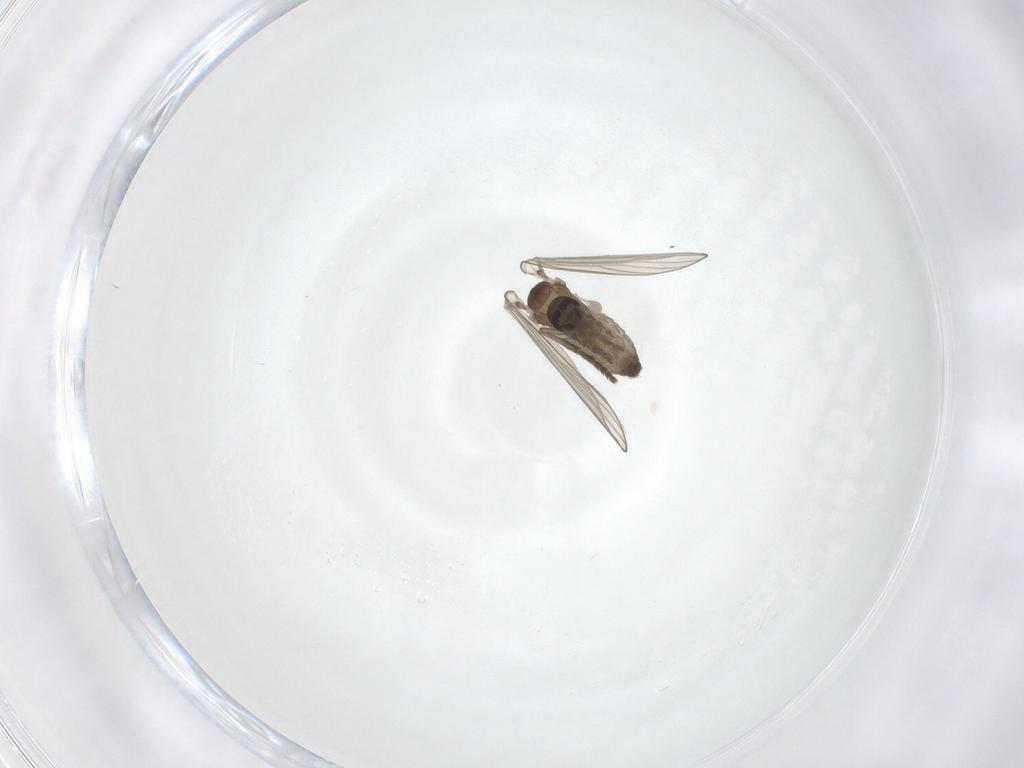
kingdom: Animalia
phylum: Arthropoda
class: Insecta
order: Diptera
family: Psychodidae
